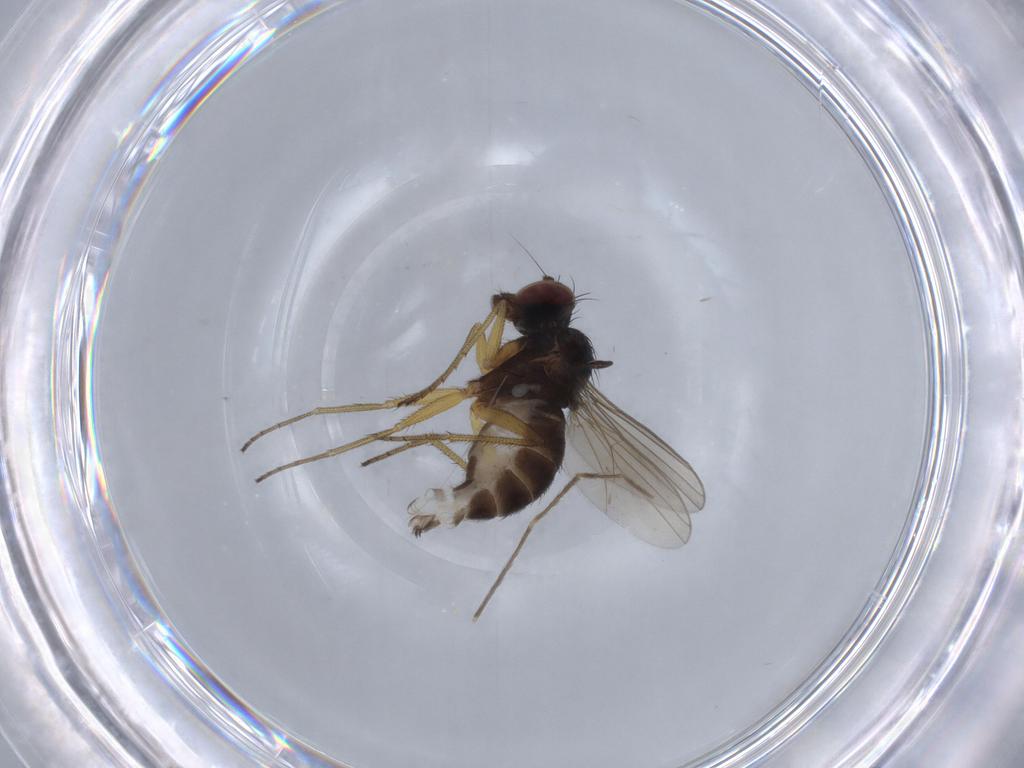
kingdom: Animalia
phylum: Arthropoda
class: Insecta
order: Diptera
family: Dolichopodidae
